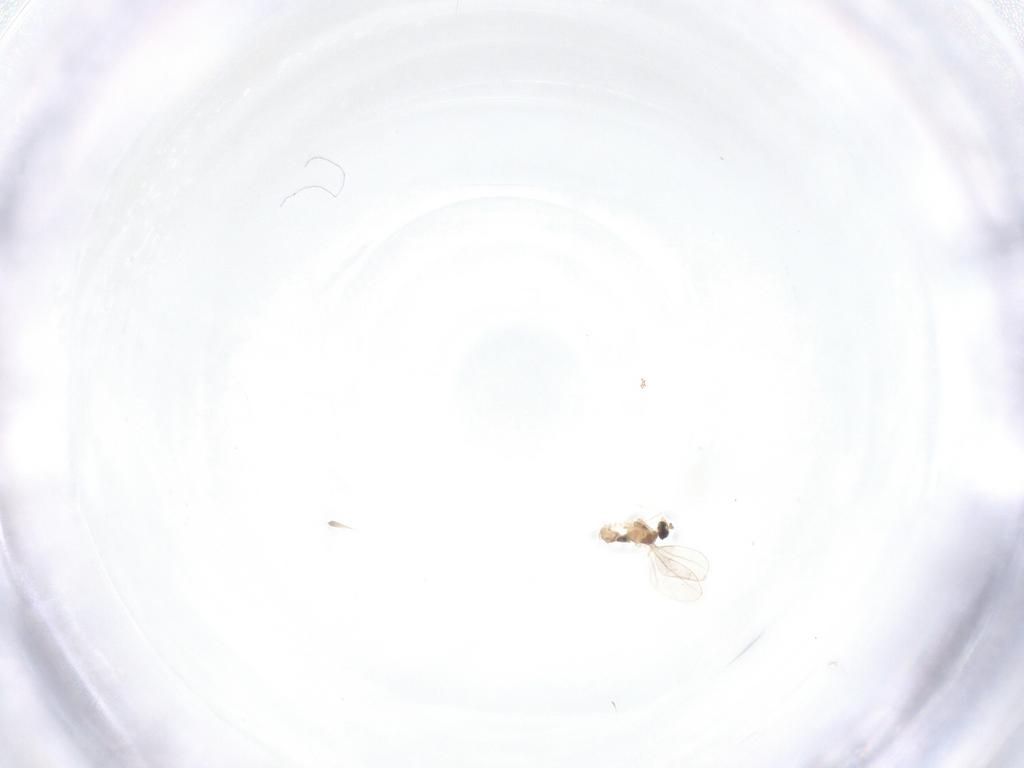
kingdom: Animalia
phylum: Arthropoda
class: Insecta
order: Diptera
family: Cecidomyiidae
